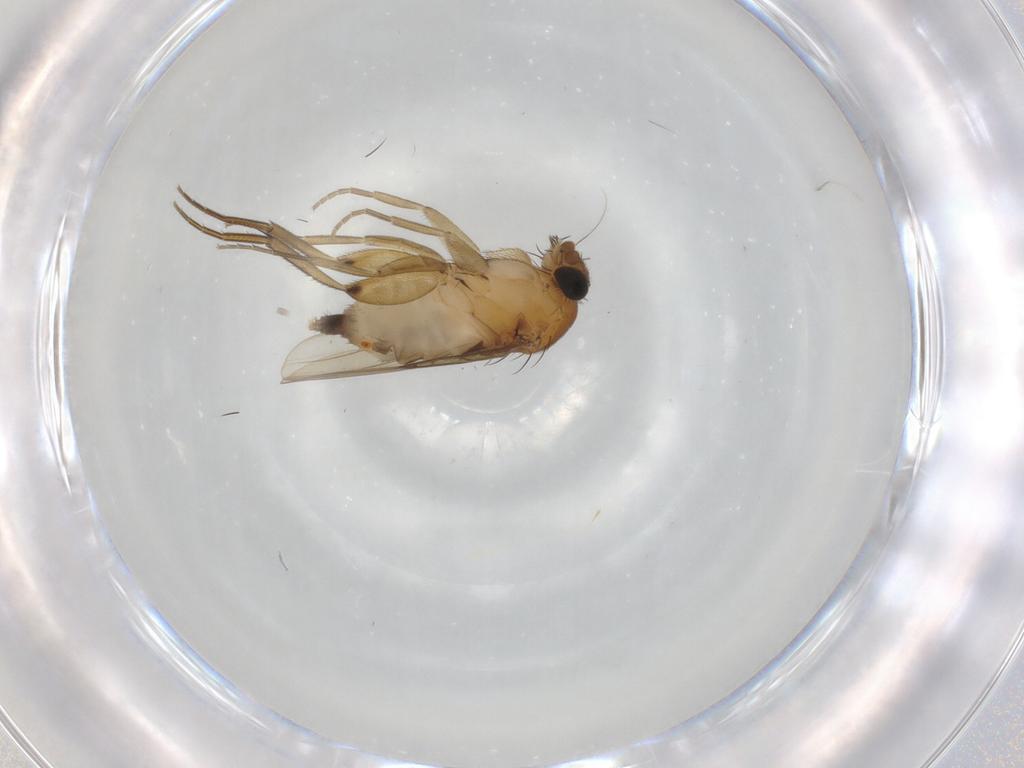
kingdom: Animalia
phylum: Arthropoda
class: Insecta
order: Diptera
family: Phoridae
